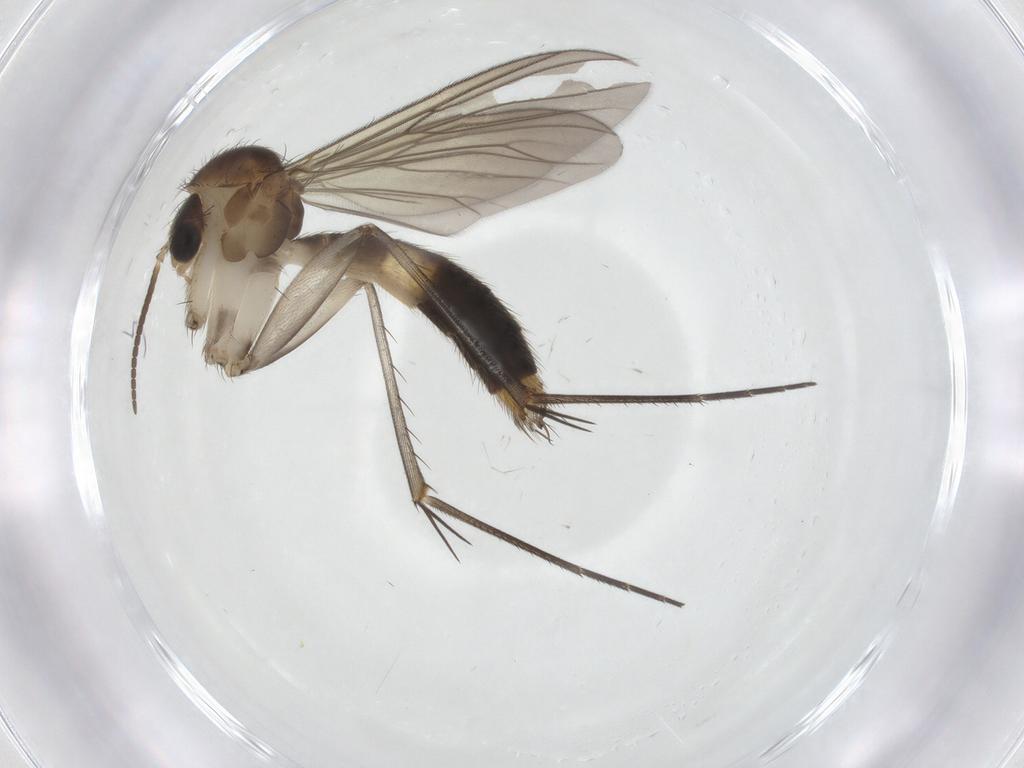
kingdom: Animalia
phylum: Arthropoda
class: Insecta
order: Diptera
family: Mycetophilidae
